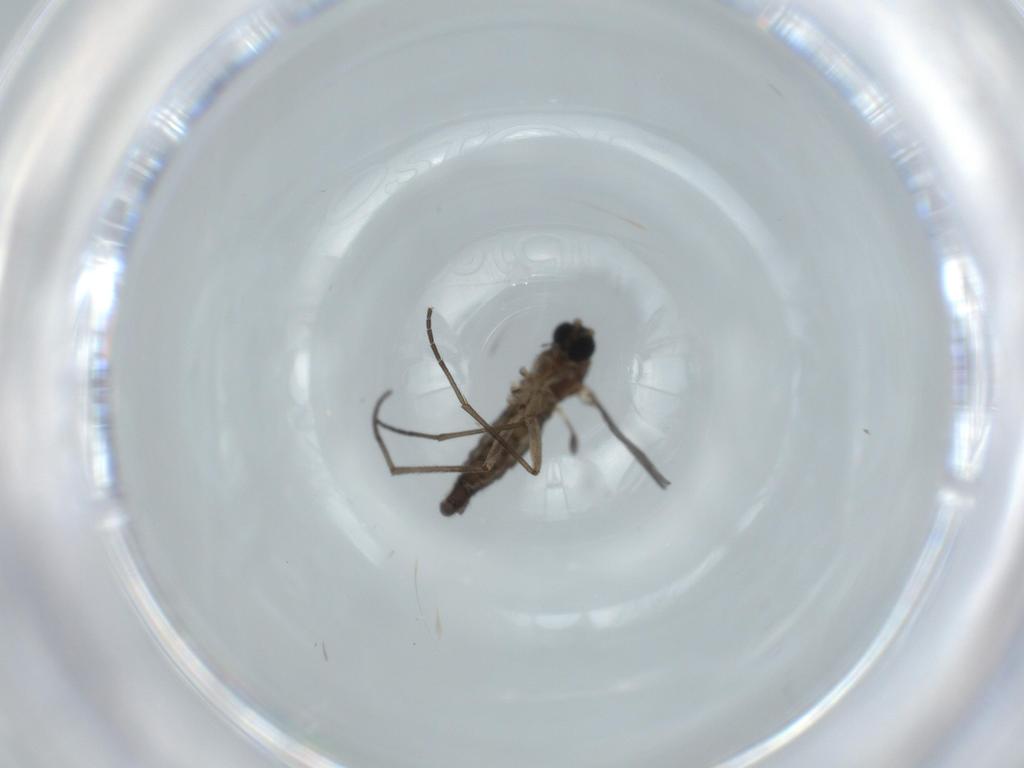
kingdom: Animalia
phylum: Arthropoda
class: Insecta
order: Diptera
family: Sciaridae
